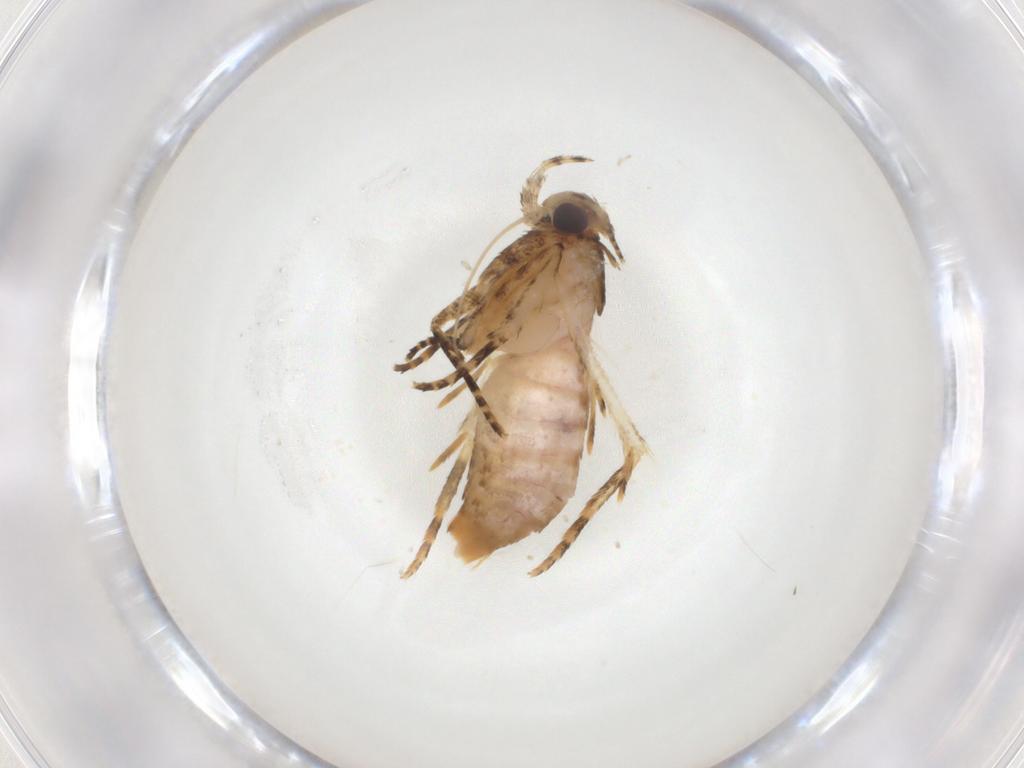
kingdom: Animalia
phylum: Arthropoda
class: Insecta
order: Lepidoptera
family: Gelechiidae
